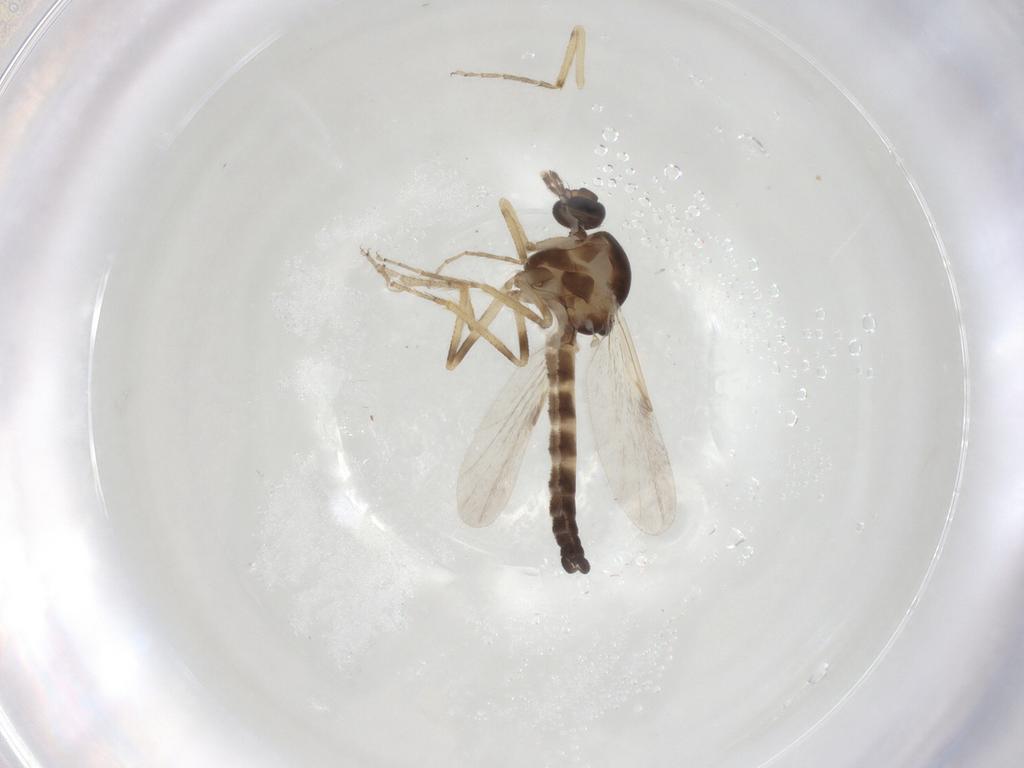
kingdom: Animalia
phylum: Arthropoda
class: Insecta
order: Diptera
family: Ceratopogonidae
